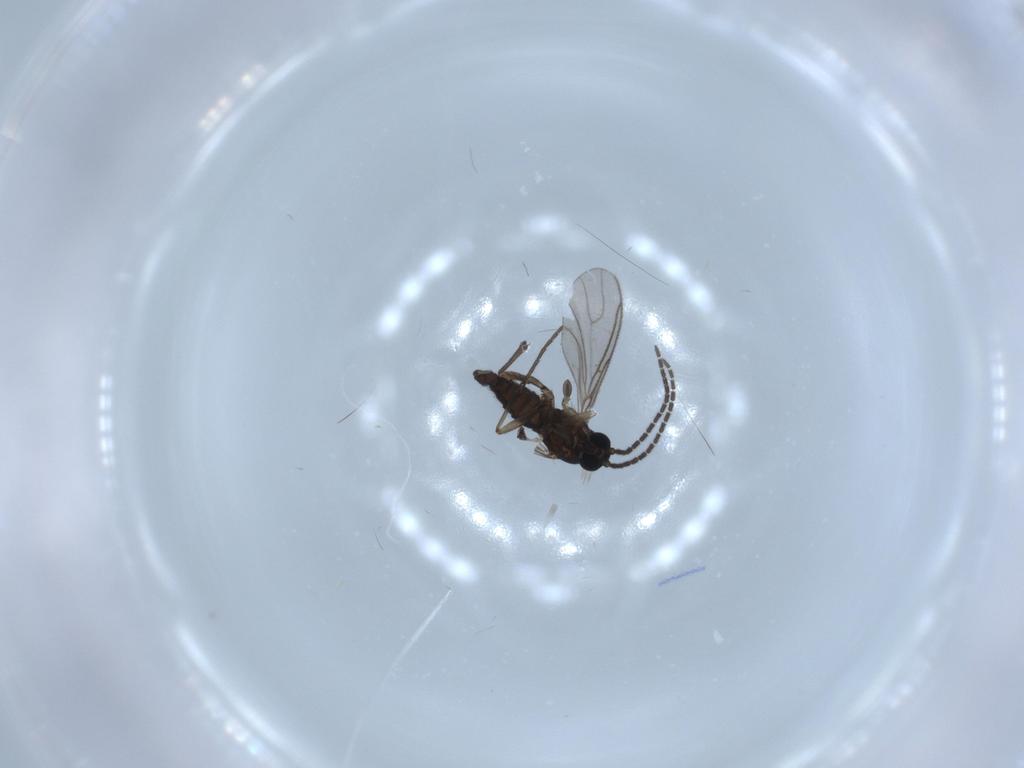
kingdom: Animalia
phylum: Arthropoda
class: Insecta
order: Diptera
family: Sciaridae
